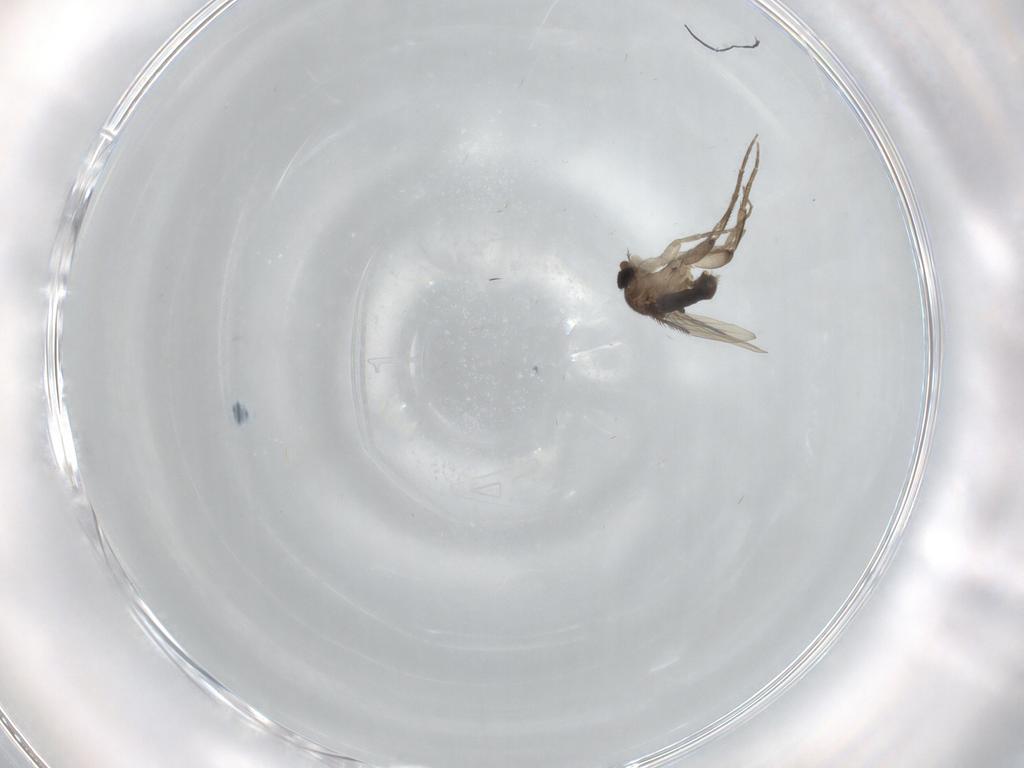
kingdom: Animalia
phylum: Arthropoda
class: Insecta
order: Diptera
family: Phoridae
